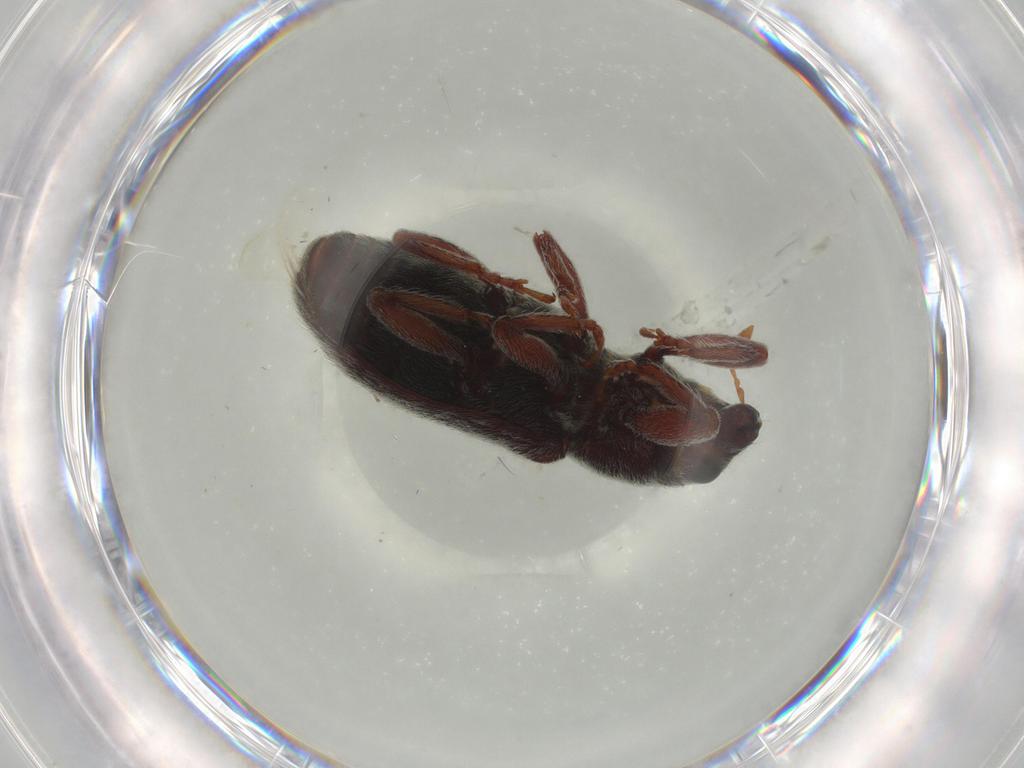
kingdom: Animalia
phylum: Arthropoda
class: Insecta
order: Coleoptera
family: Curculionidae
